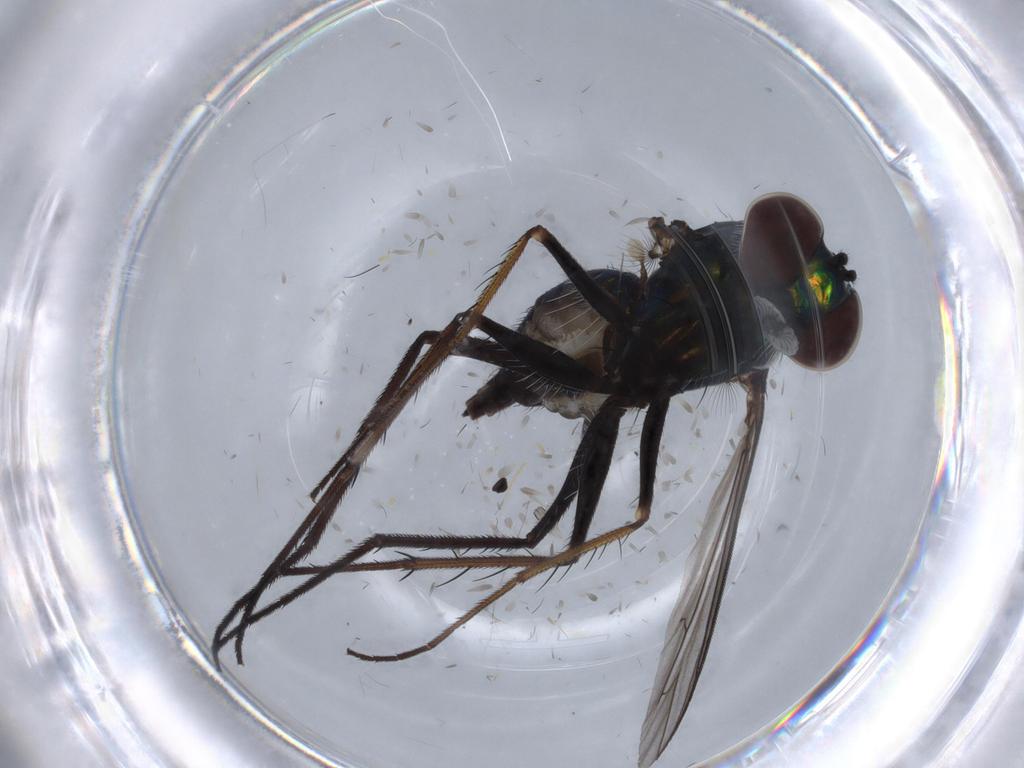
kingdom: Animalia
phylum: Arthropoda
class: Insecta
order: Diptera
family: Dolichopodidae
